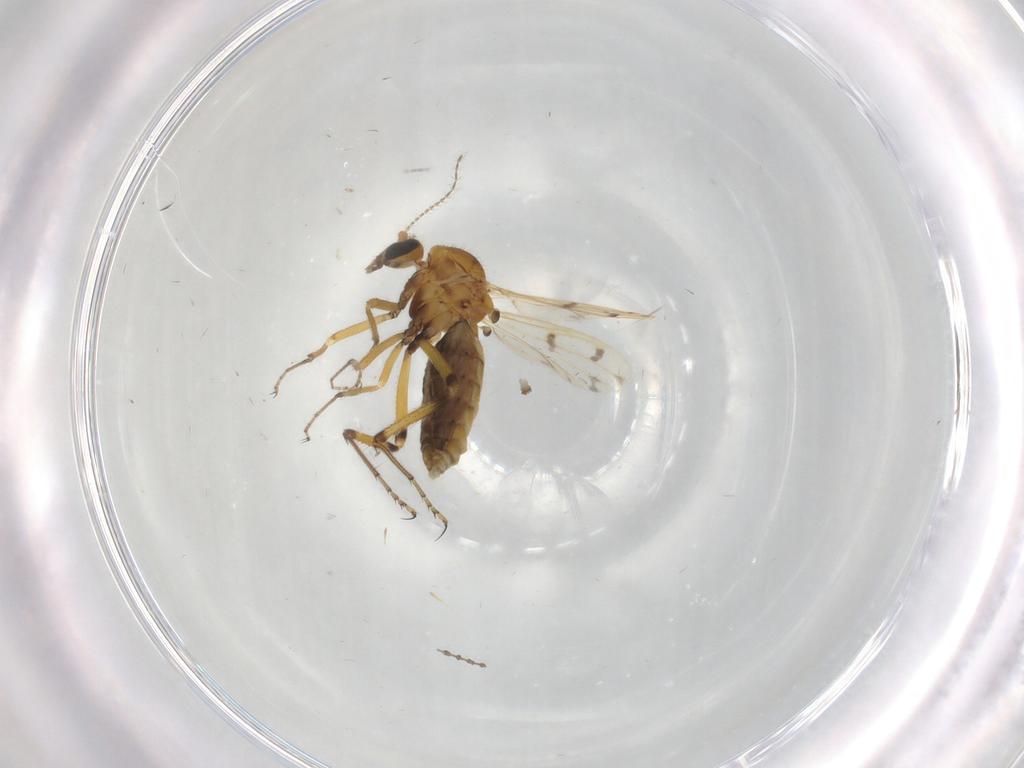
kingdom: Animalia
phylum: Arthropoda
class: Insecta
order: Diptera
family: Ceratopogonidae
